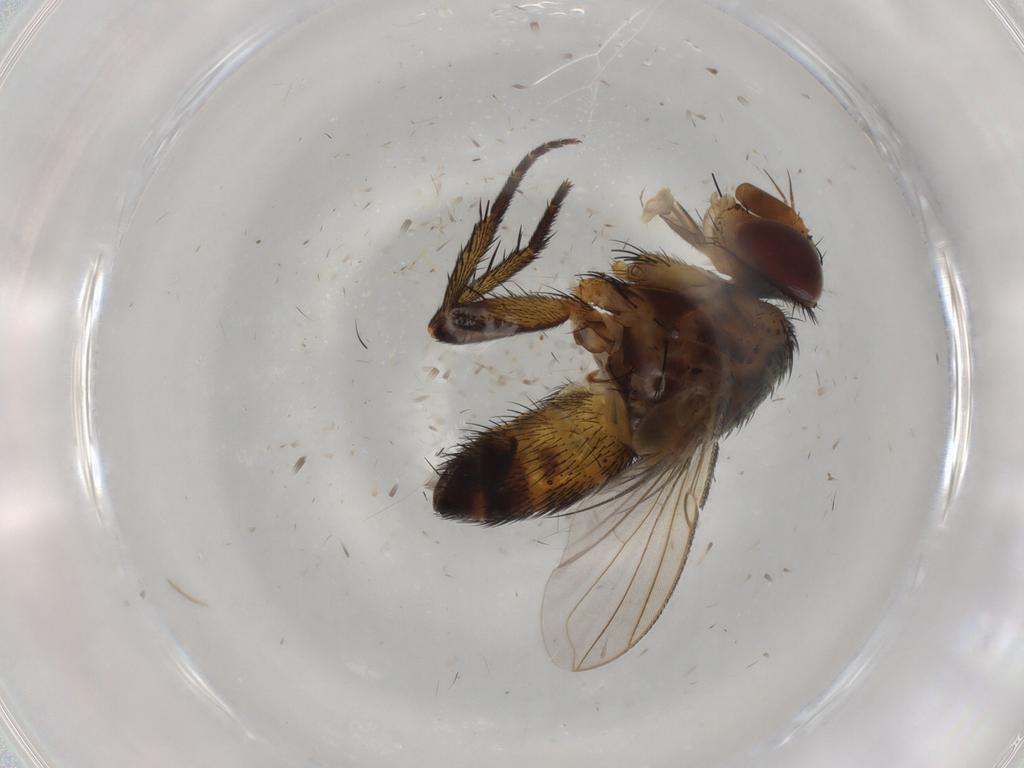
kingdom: Animalia
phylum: Arthropoda
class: Insecta
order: Diptera
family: Psychodidae
